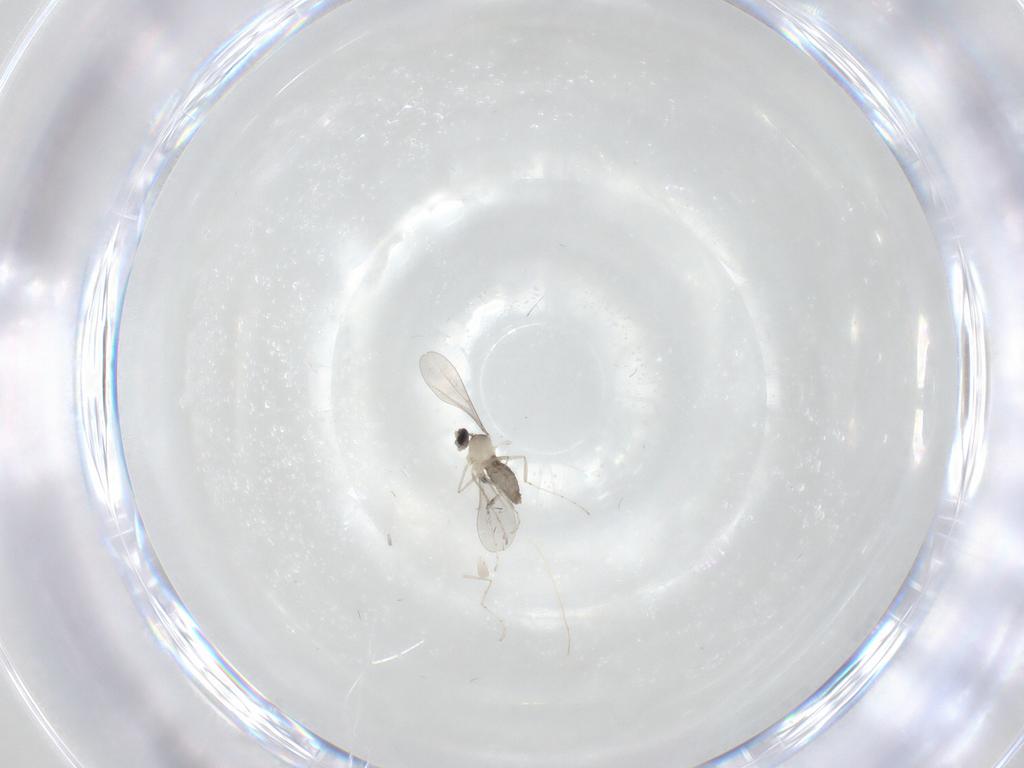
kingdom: Animalia
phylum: Arthropoda
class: Insecta
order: Diptera
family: Cecidomyiidae
